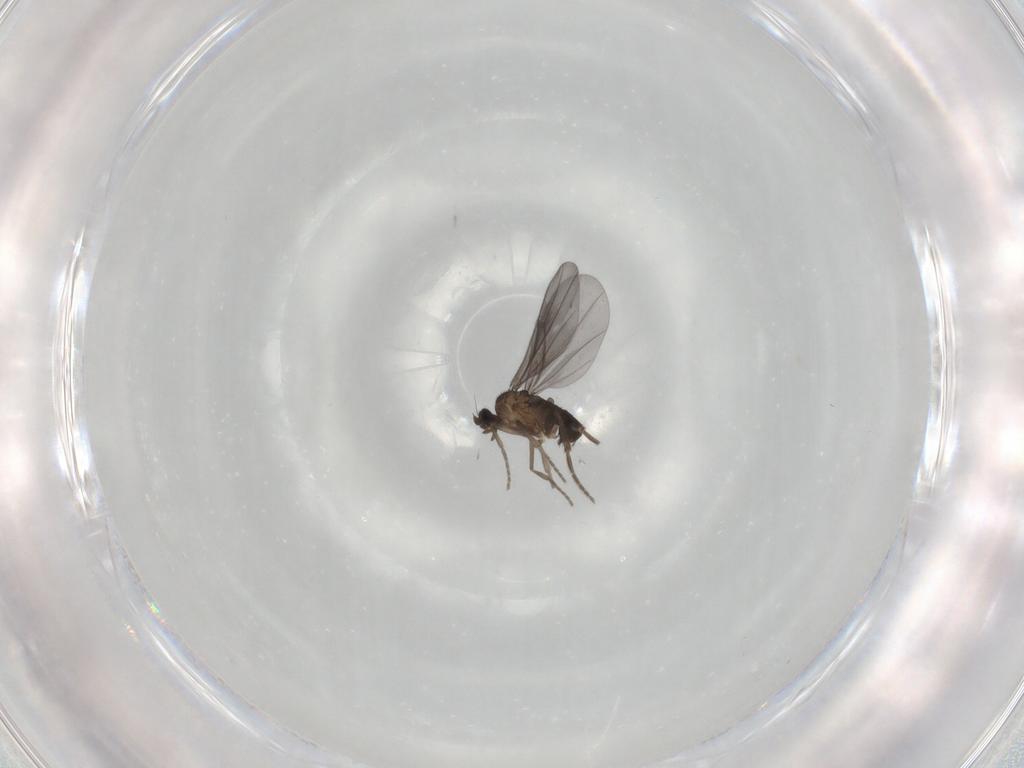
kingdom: Animalia
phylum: Arthropoda
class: Insecta
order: Diptera
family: Phoridae
